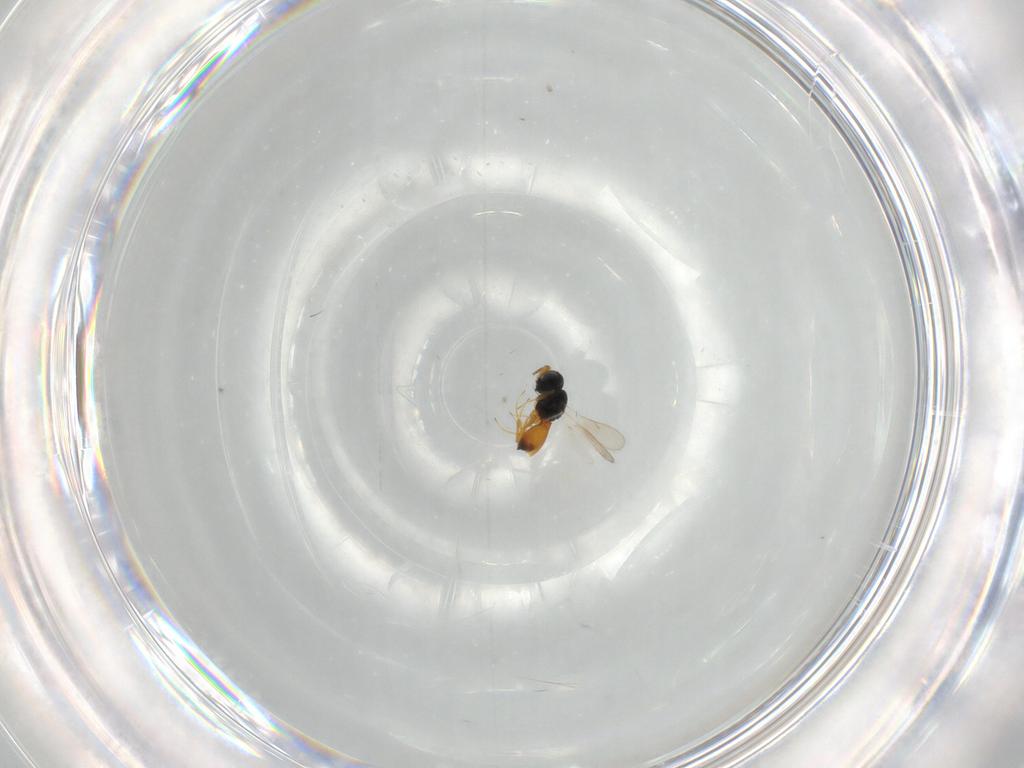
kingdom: Animalia
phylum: Arthropoda
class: Insecta
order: Hymenoptera
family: Scelionidae
